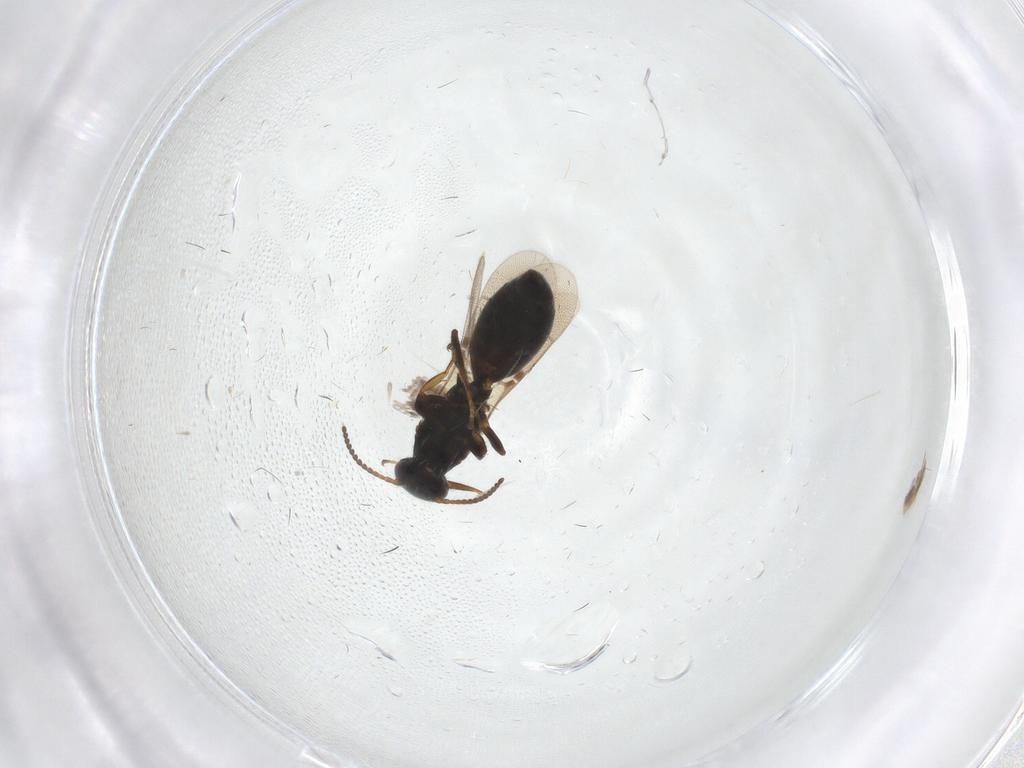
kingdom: Animalia
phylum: Arthropoda
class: Insecta
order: Hymenoptera
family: Bethylidae
